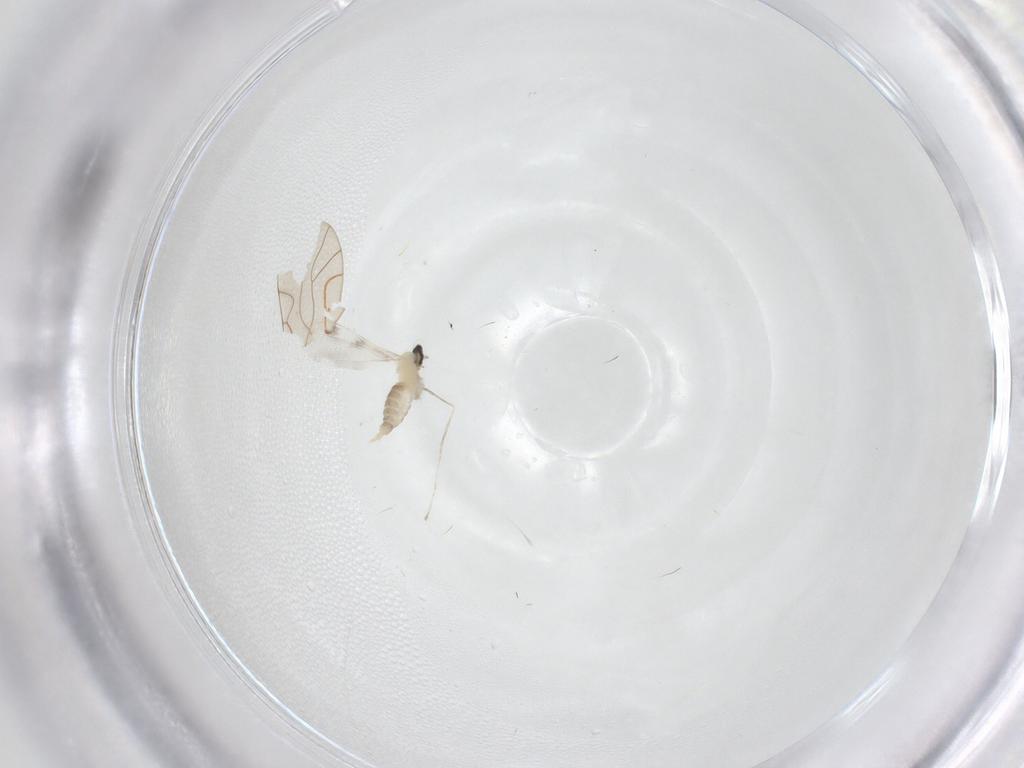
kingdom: Animalia
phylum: Arthropoda
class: Insecta
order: Diptera
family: Cecidomyiidae
